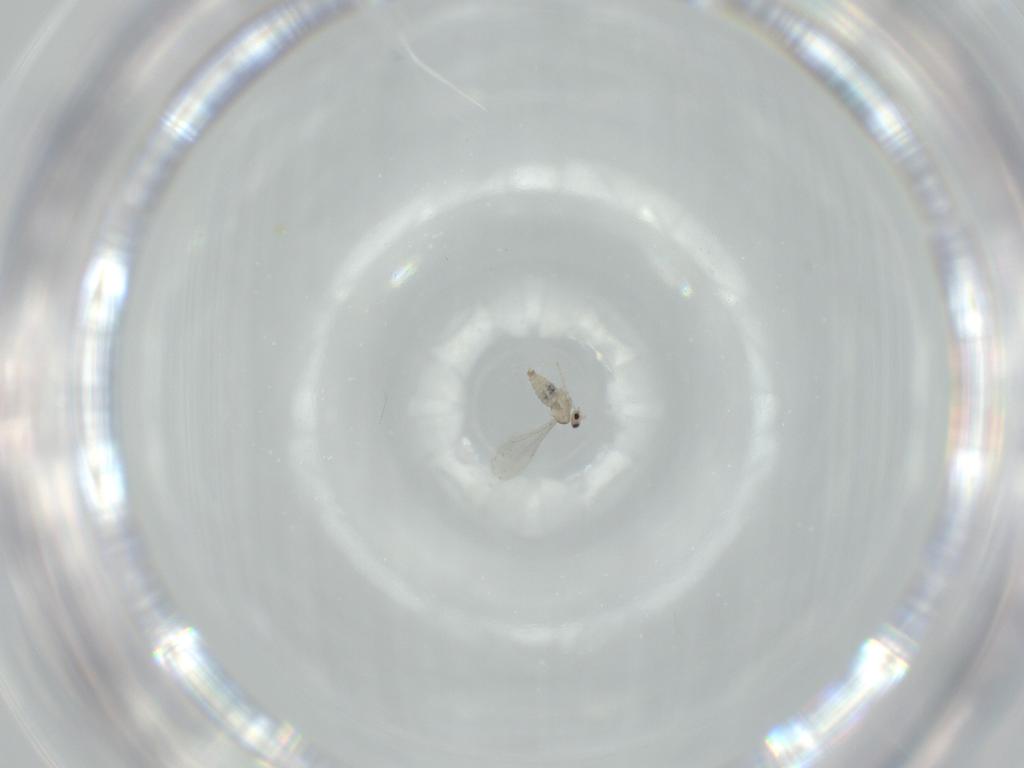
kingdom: Animalia
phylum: Arthropoda
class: Insecta
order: Diptera
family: Cecidomyiidae
